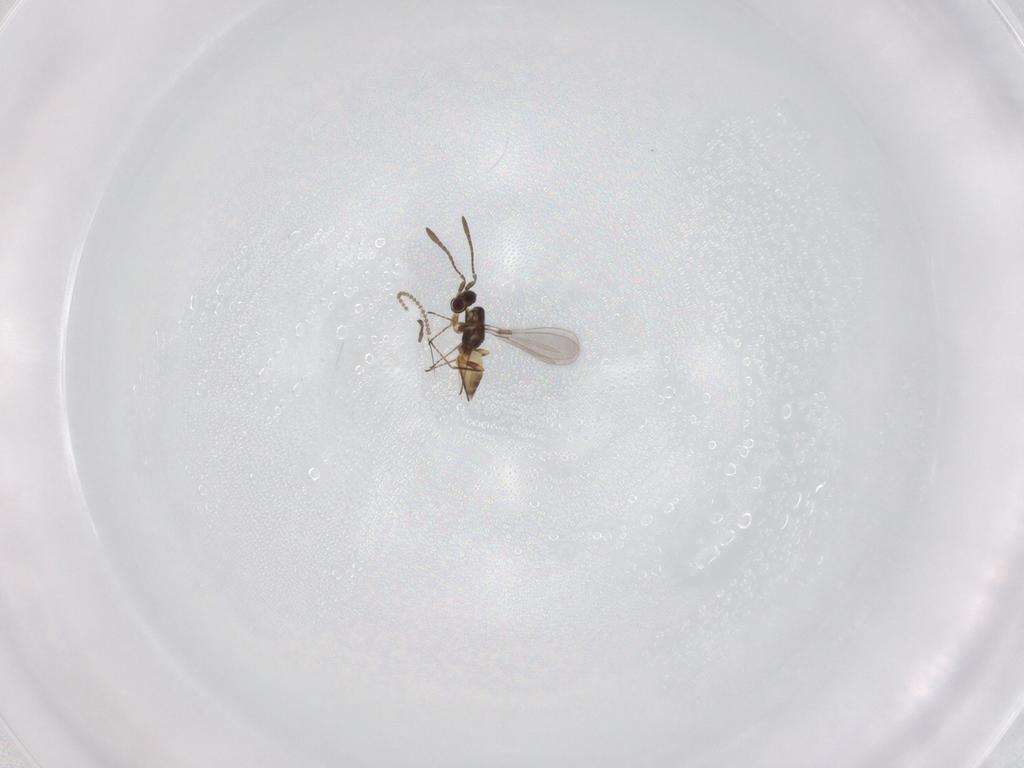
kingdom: Animalia
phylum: Arthropoda
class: Insecta
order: Hymenoptera
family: Mymaridae
